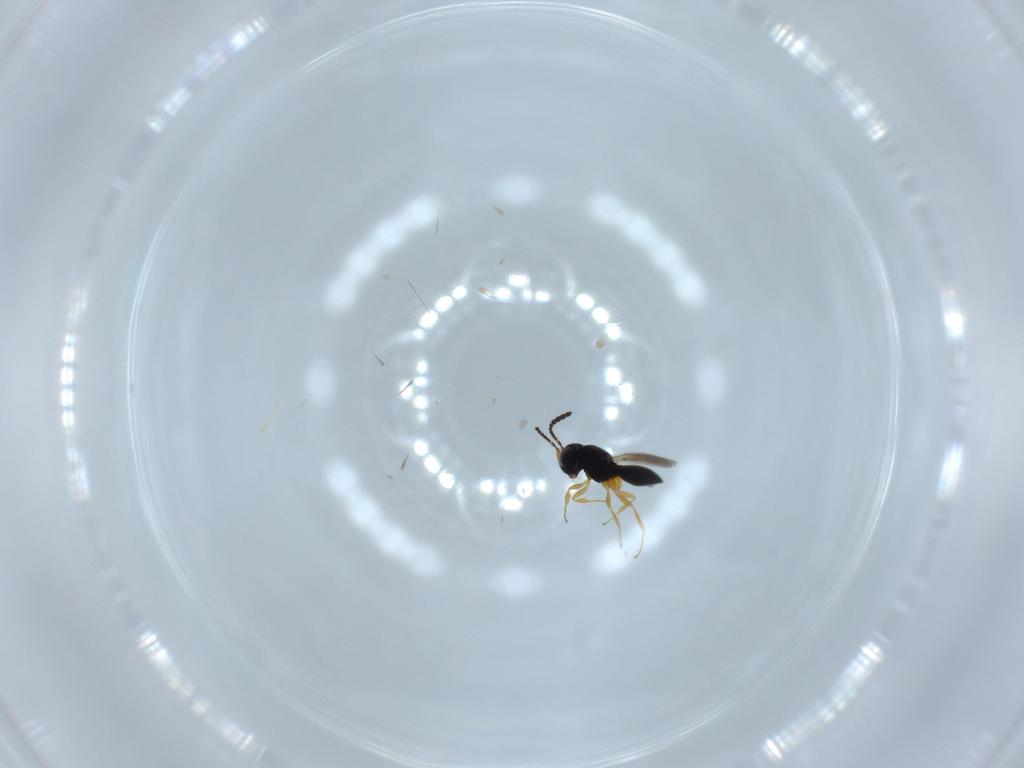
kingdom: Animalia
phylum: Arthropoda
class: Insecta
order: Hymenoptera
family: Scelionidae
